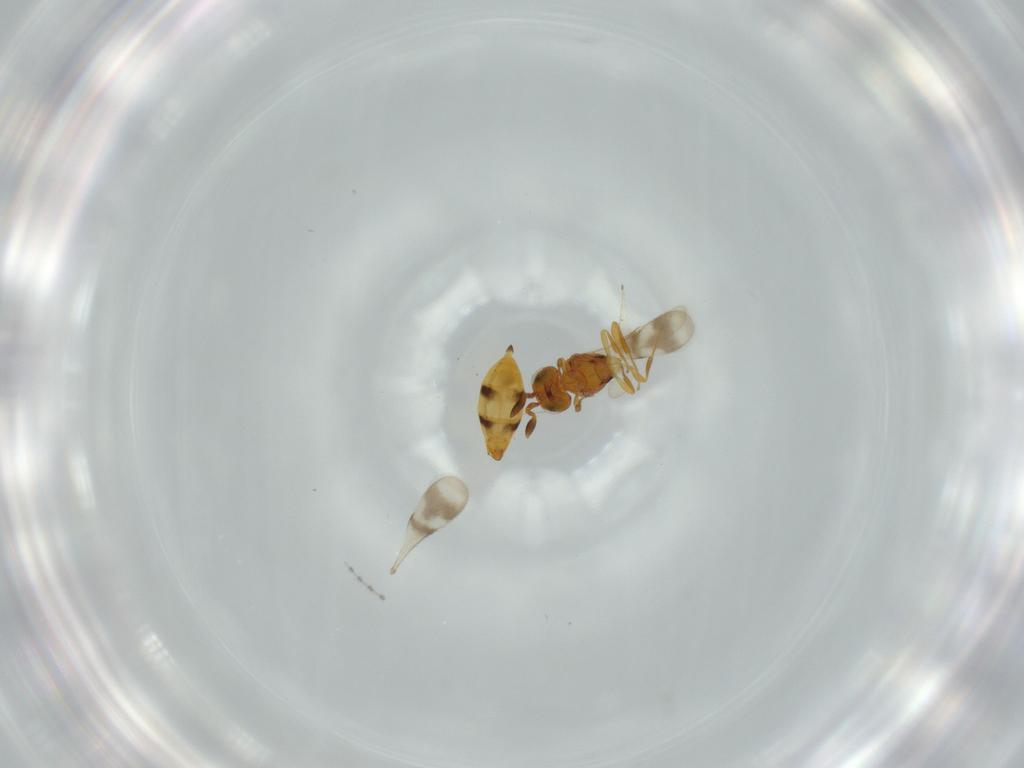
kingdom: Animalia
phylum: Arthropoda
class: Insecta
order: Hymenoptera
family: Scelionidae
